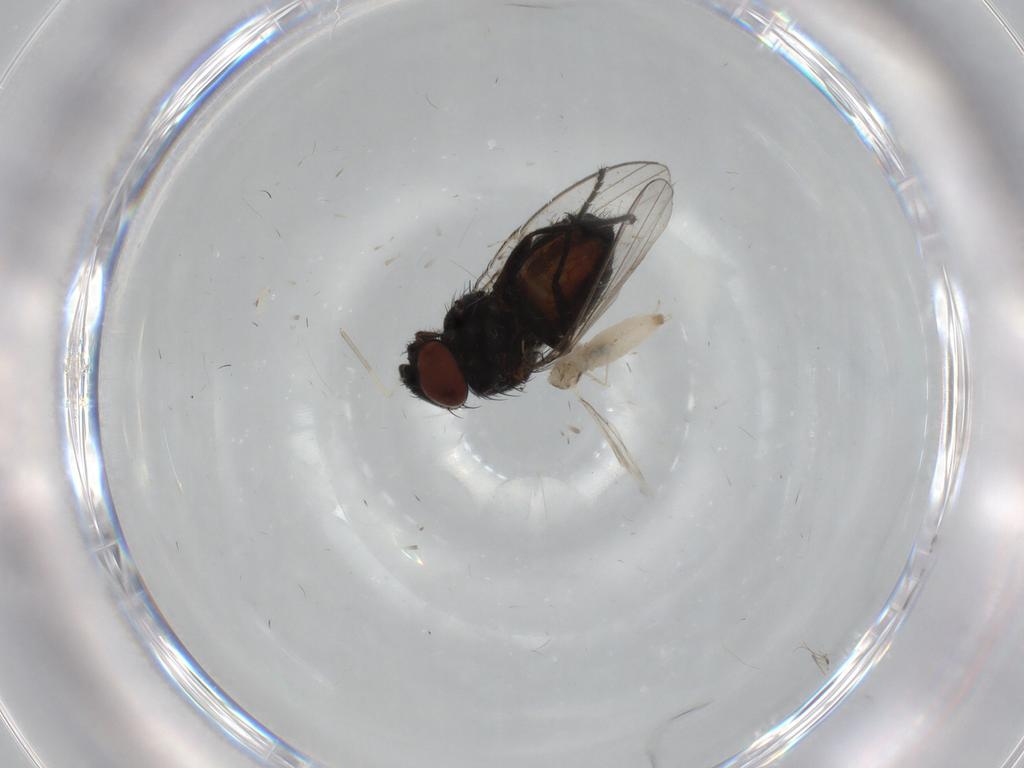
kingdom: Animalia
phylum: Arthropoda
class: Insecta
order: Diptera
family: Milichiidae
